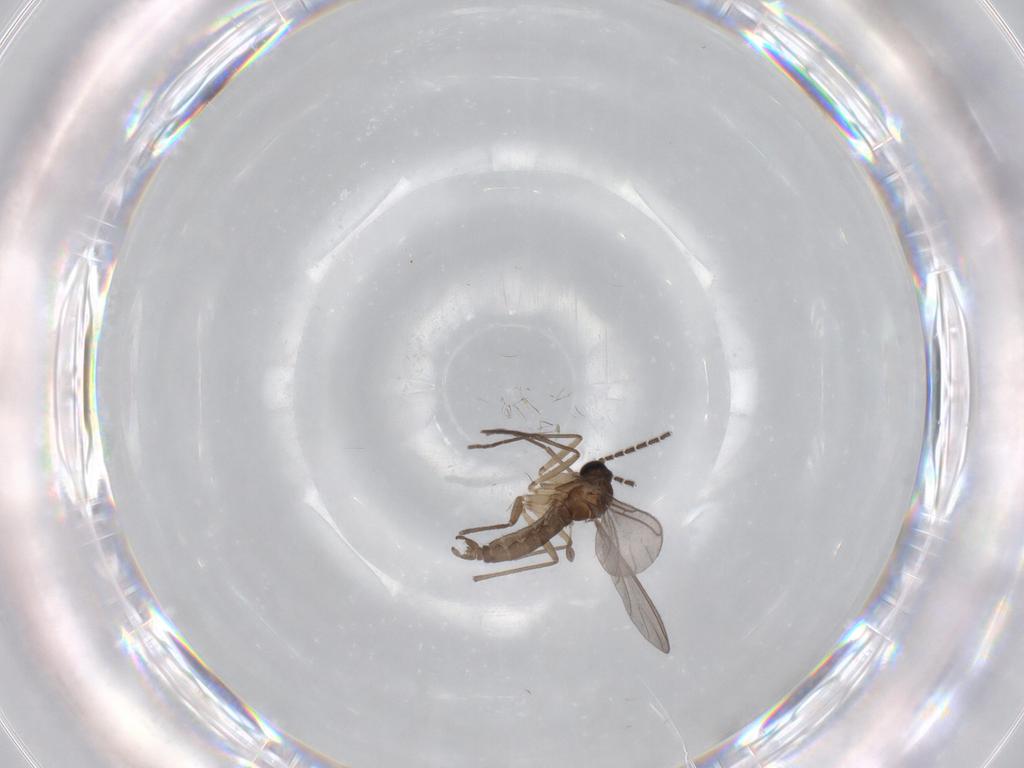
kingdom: Animalia
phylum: Arthropoda
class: Insecta
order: Diptera
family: Sciaridae
